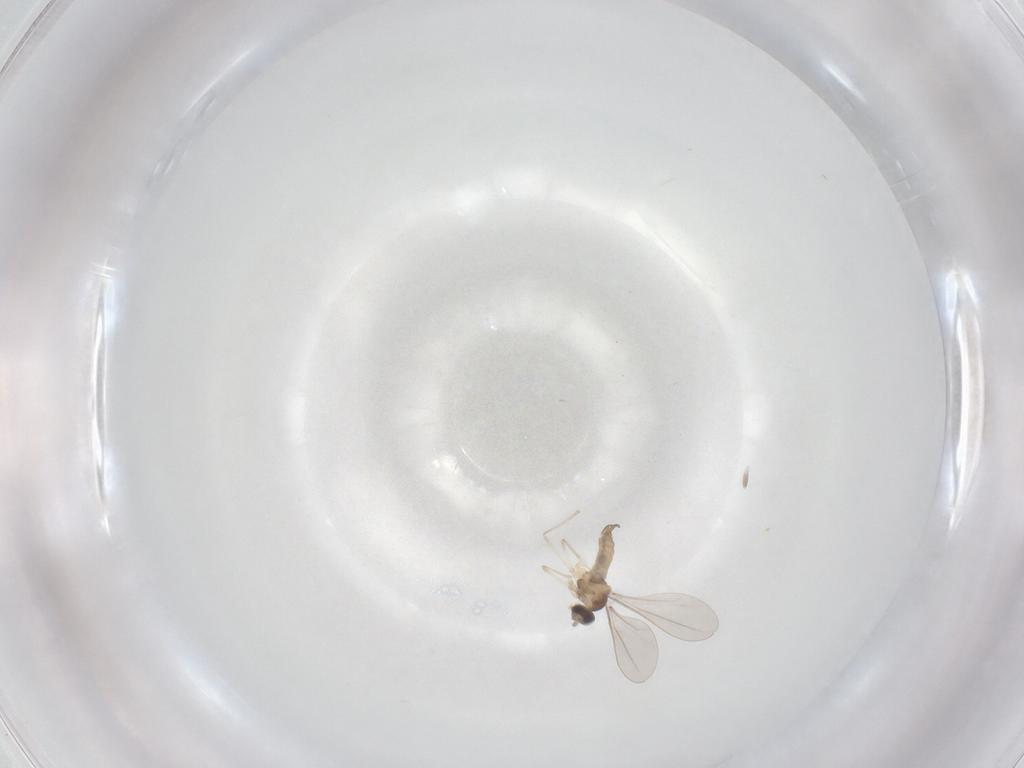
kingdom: Animalia
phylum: Arthropoda
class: Insecta
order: Diptera
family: Cecidomyiidae
